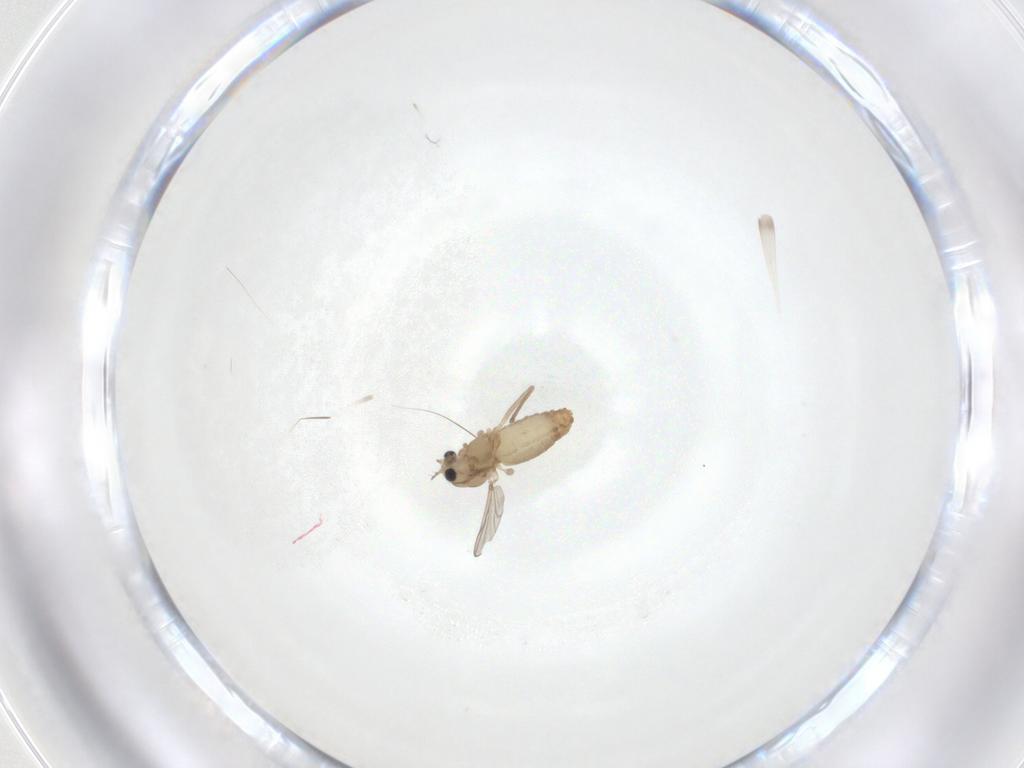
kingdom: Animalia
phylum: Arthropoda
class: Insecta
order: Diptera
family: Chironomidae
